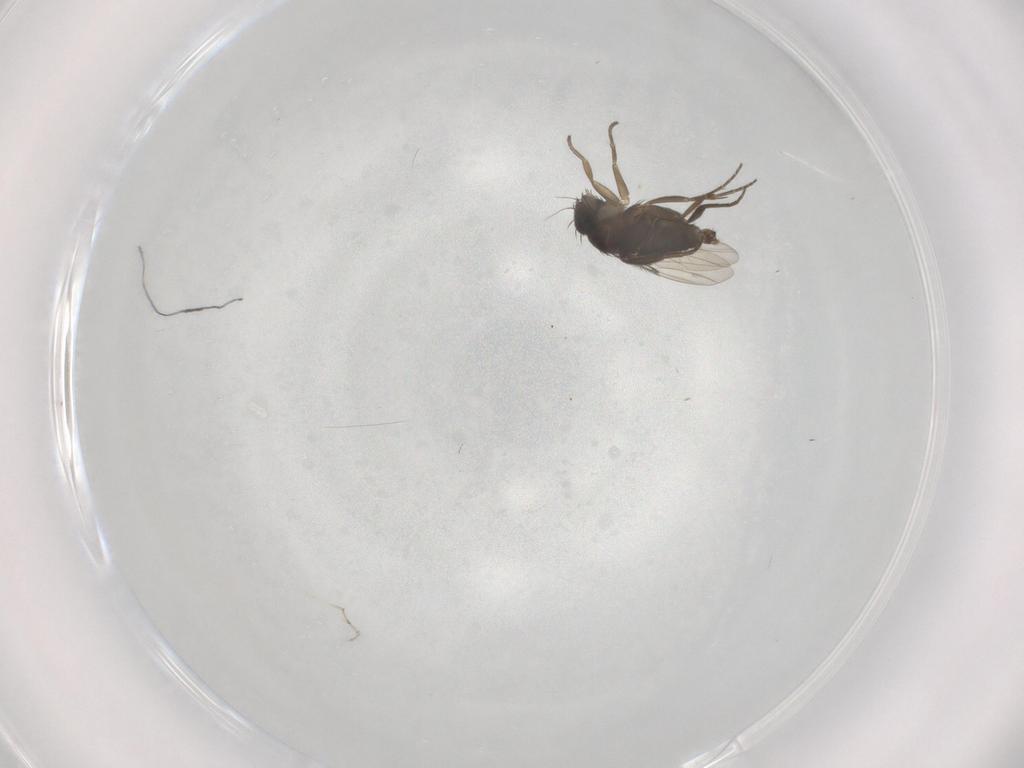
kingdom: Animalia
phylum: Arthropoda
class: Insecta
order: Diptera
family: Phoridae
